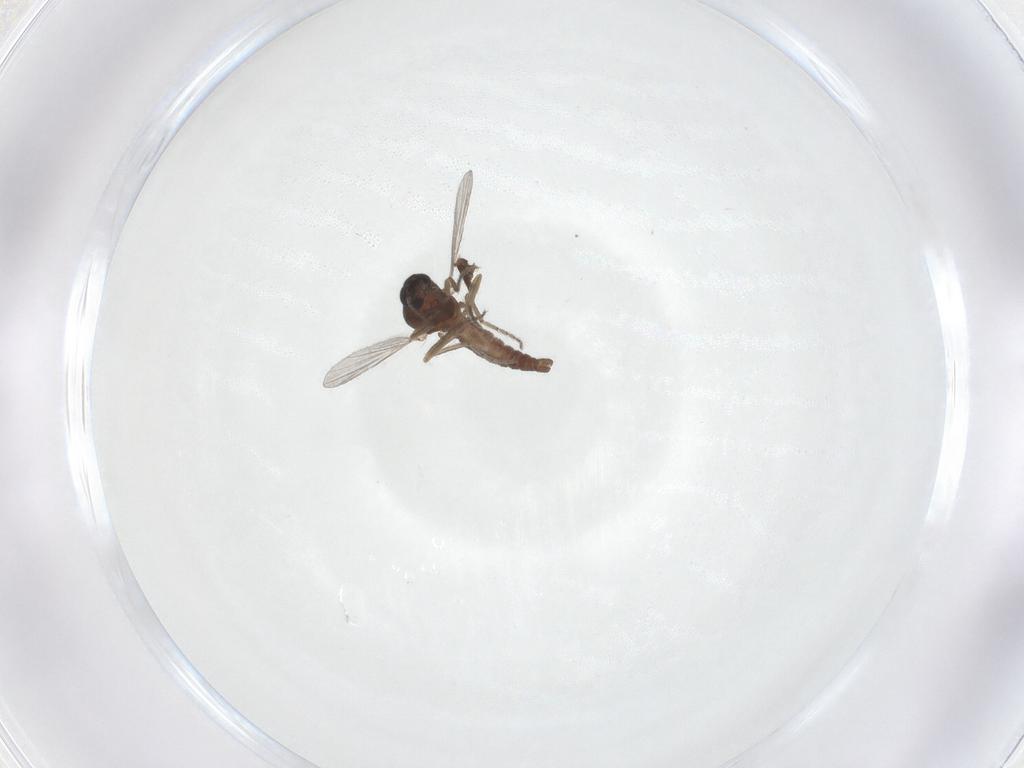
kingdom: Animalia
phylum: Arthropoda
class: Insecta
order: Diptera
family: Ceratopogonidae
